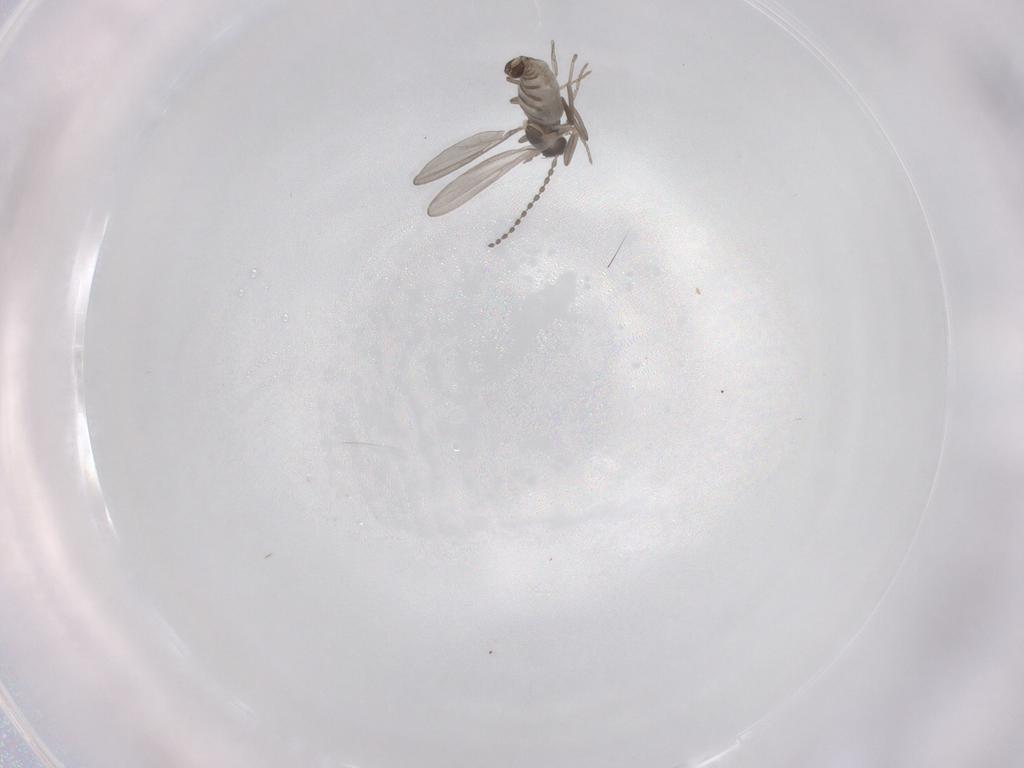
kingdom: Animalia
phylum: Arthropoda
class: Insecta
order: Diptera
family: Cecidomyiidae
